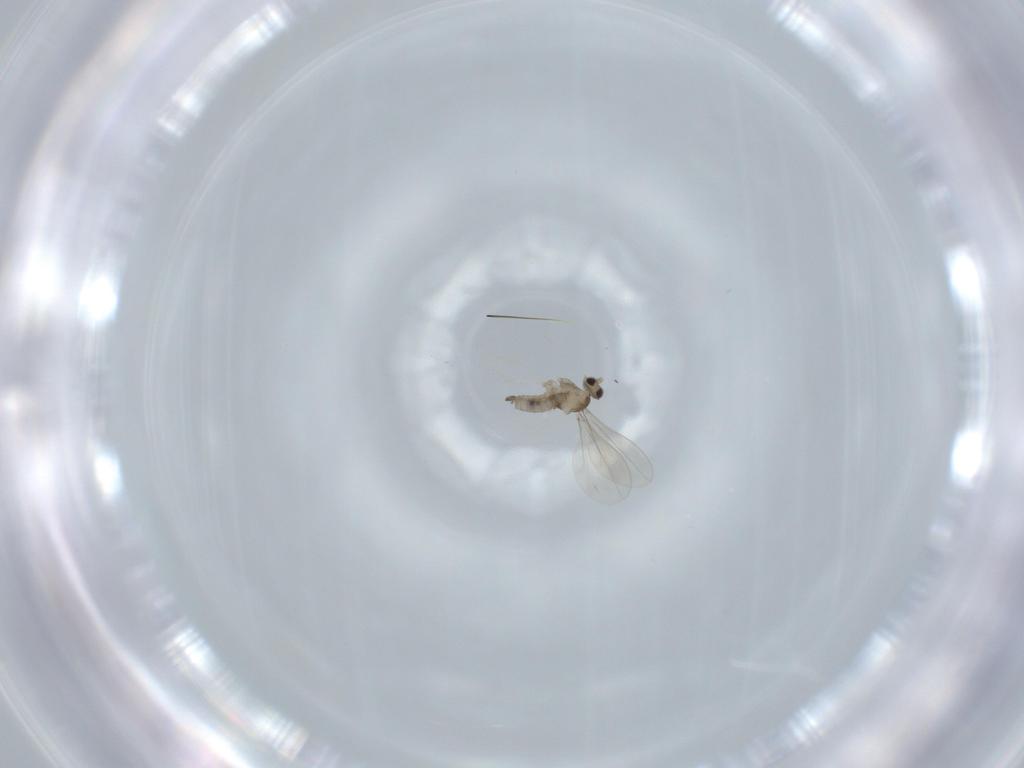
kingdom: Animalia
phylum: Arthropoda
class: Insecta
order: Diptera
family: Cecidomyiidae
